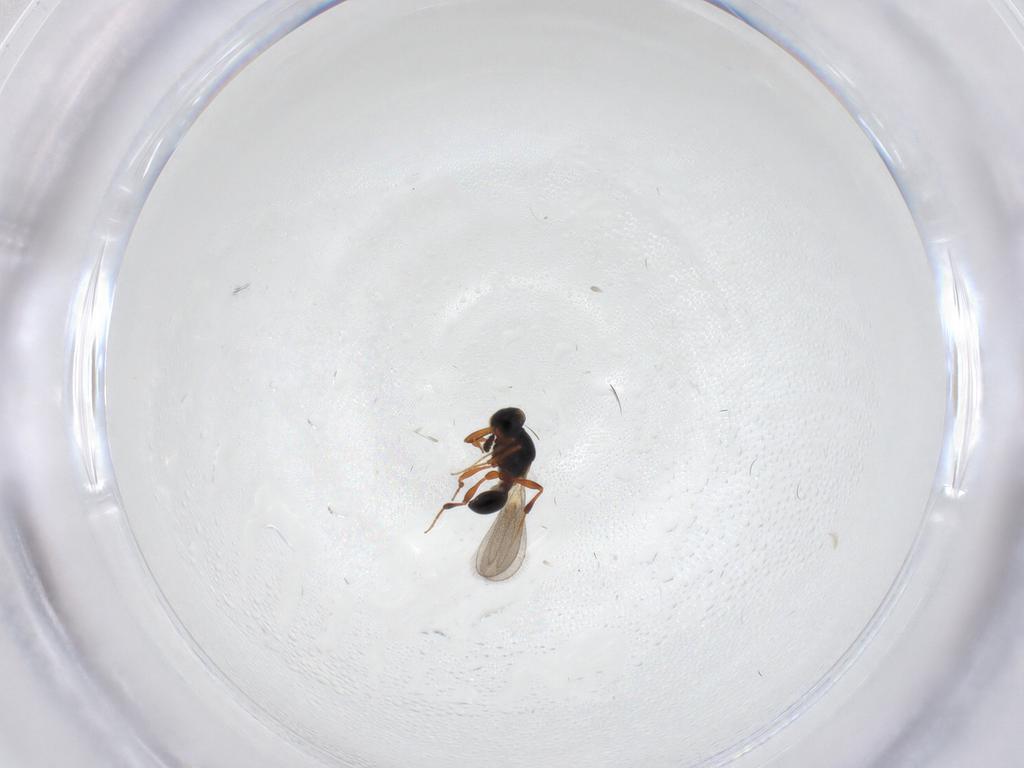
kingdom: Animalia
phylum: Arthropoda
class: Insecta
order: Hymenoptera
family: Platygastridae
